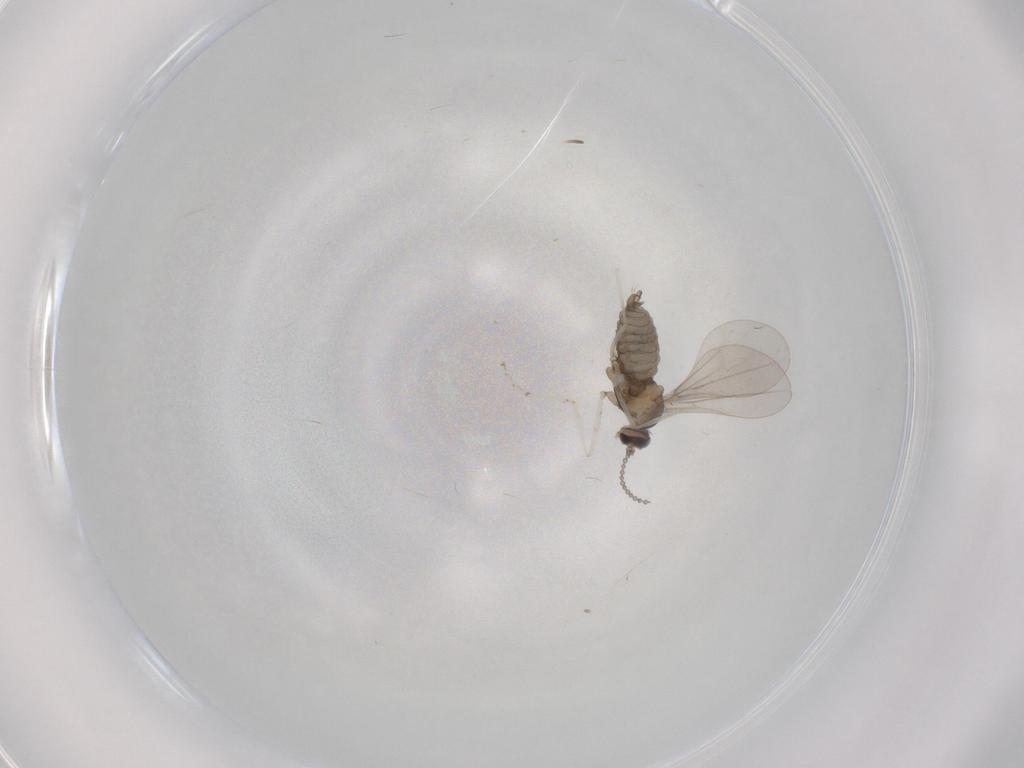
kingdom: Animalia
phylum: Arthropoda
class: Insecta
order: Diptera
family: Cecidomyiidae
